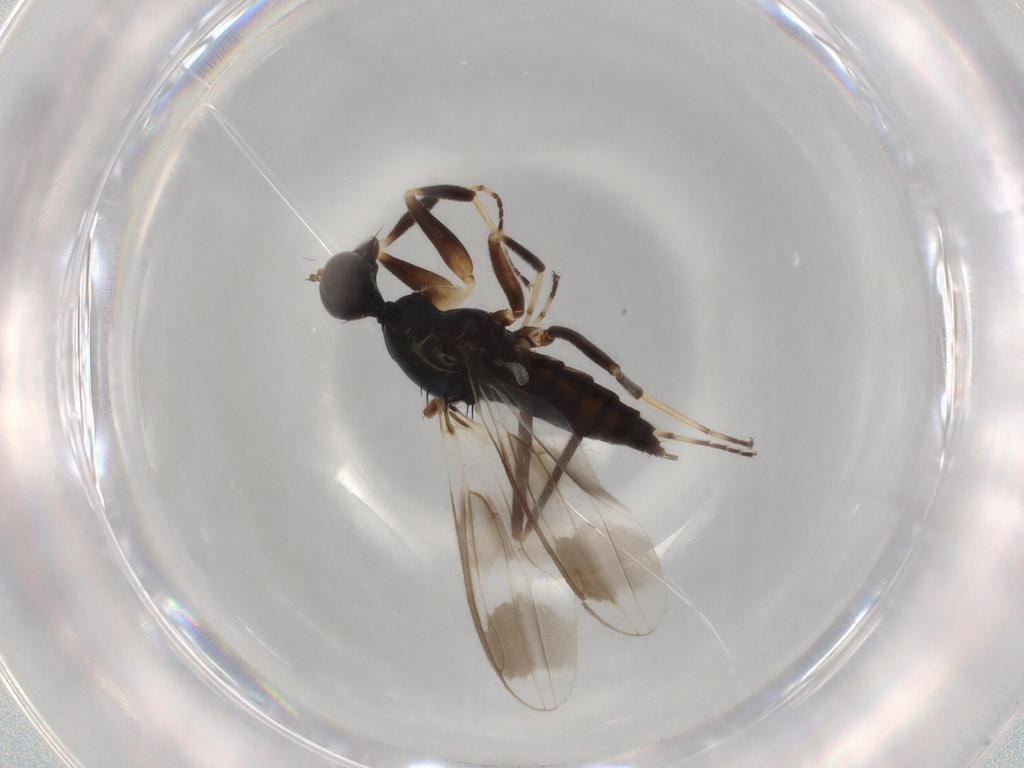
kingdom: Animalia
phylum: Arthropoda
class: Insecta
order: Diptera
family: Hybotidae
